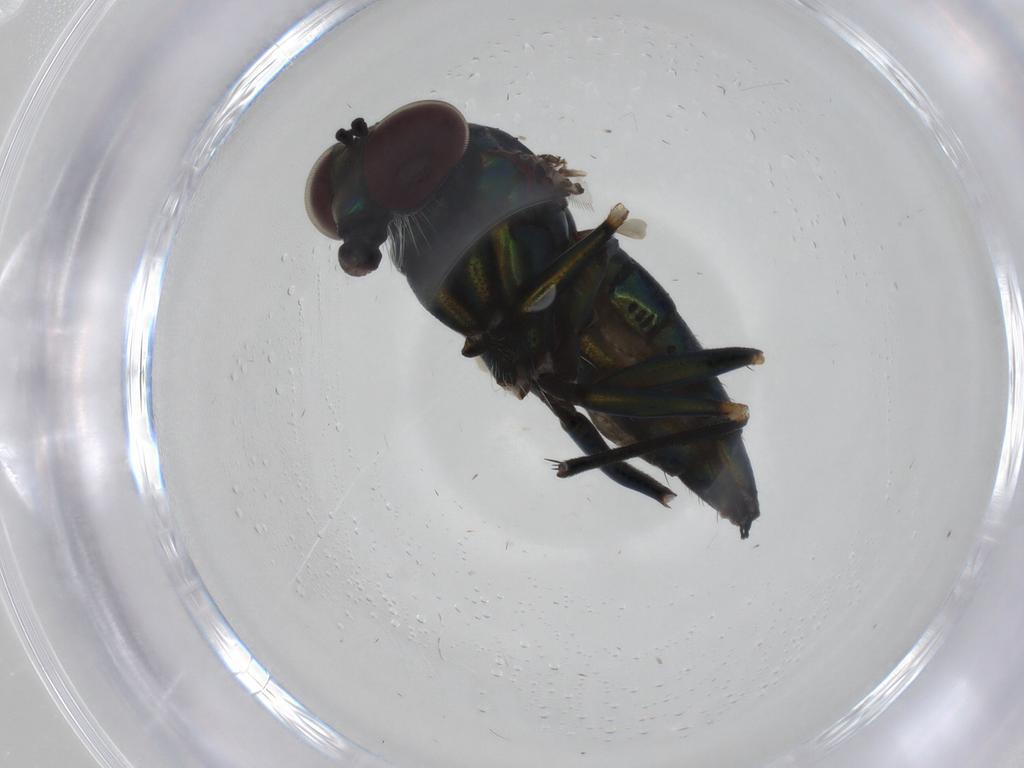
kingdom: Animalia
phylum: Arthropoda
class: Insecta
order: Diptera
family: Dolichopodidae
